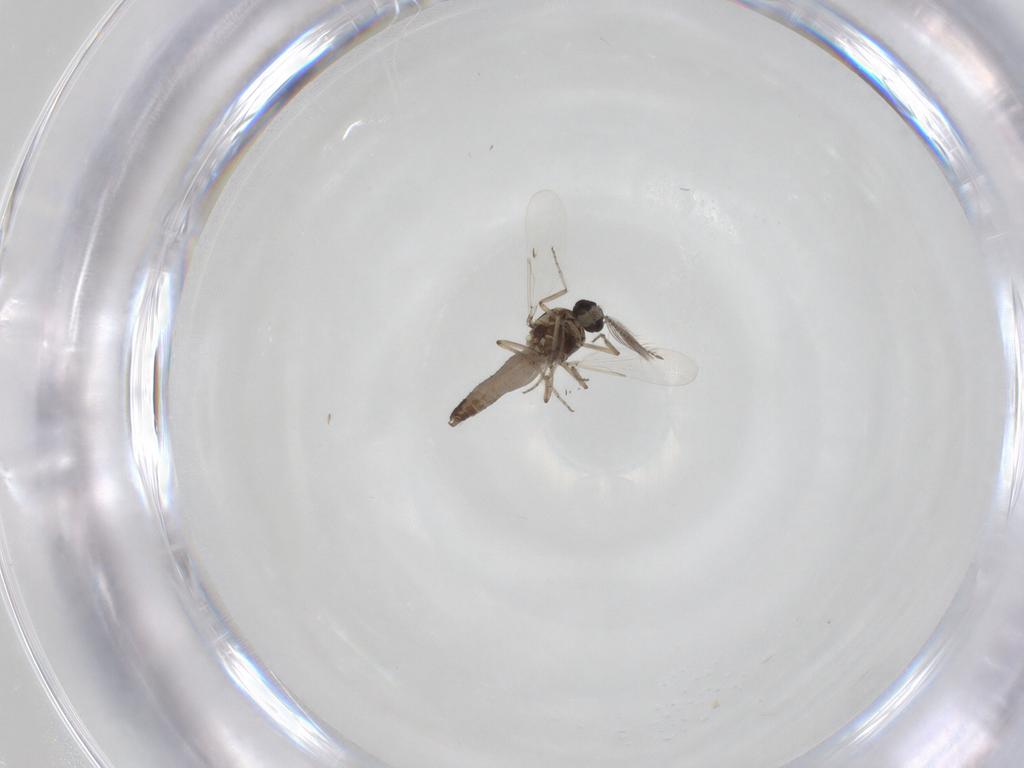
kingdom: Animalia
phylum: Arthropoda
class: Insecta
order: Diptera
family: Ceratopogonidae
